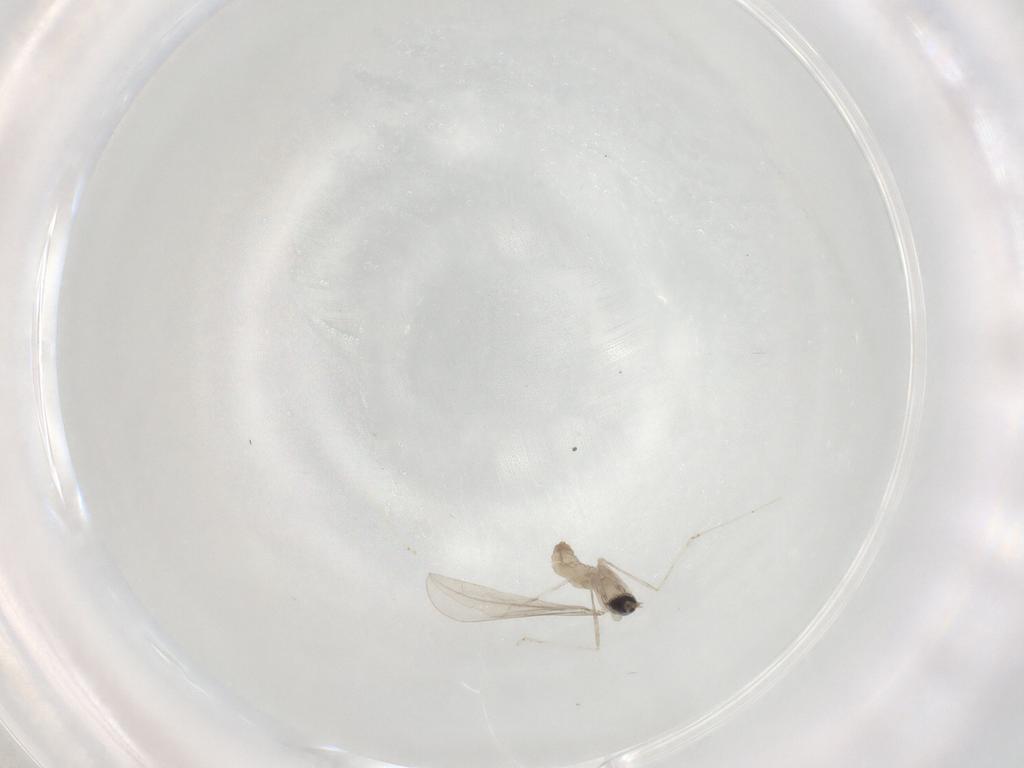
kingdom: Animalia
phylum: Arthropoda
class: Insecta
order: Diptera
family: Cecidomyiidae
